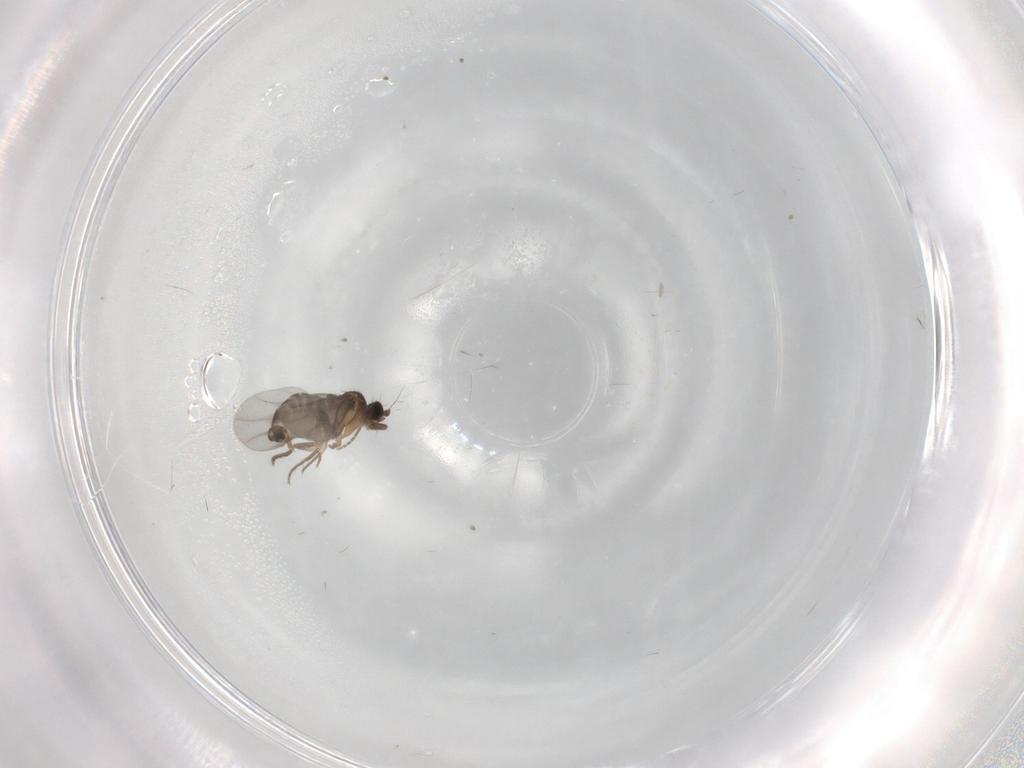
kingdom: Animalia
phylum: Arthropoda
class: Insecta
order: Diptera
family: Phoridae
